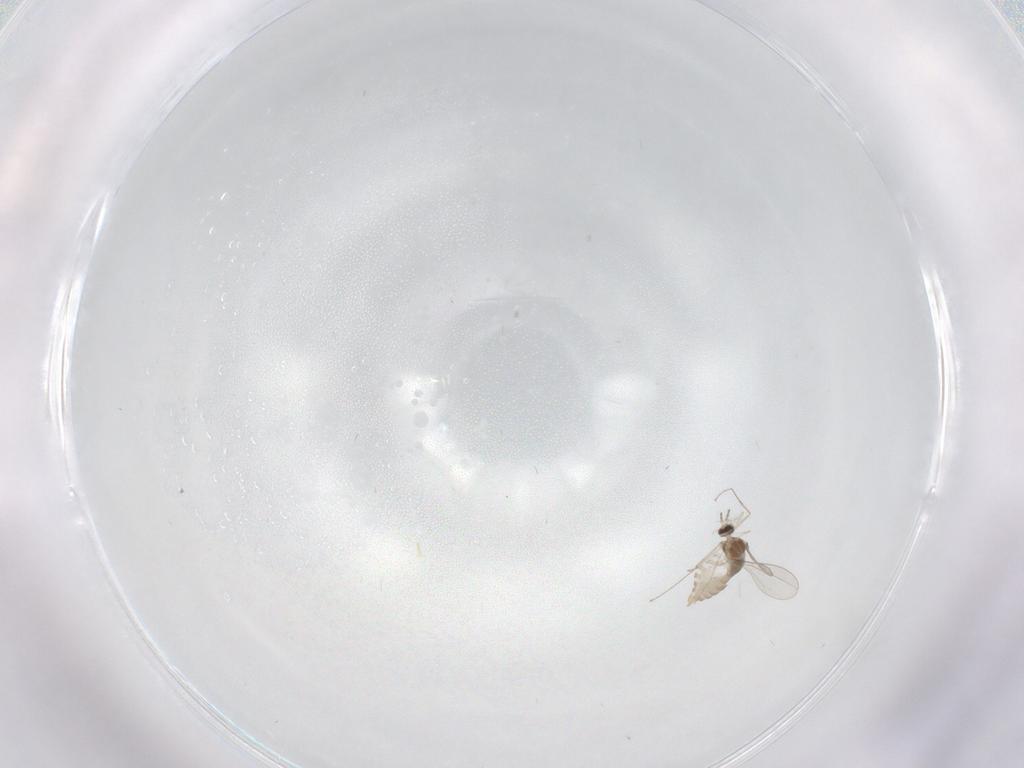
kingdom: Animalia
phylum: Arthropoda
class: Insecta
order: Diptera
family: Cecidomyiidae
